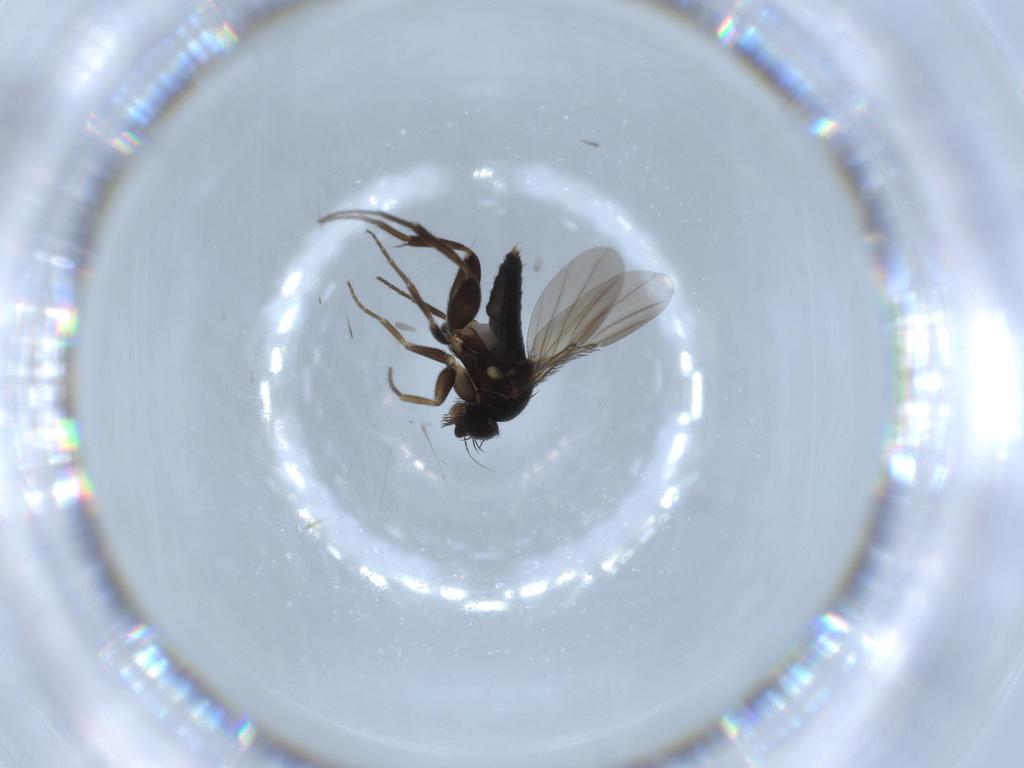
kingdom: Animalia
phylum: Arthropoda
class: Insecta
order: Diptera
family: Phoridae
